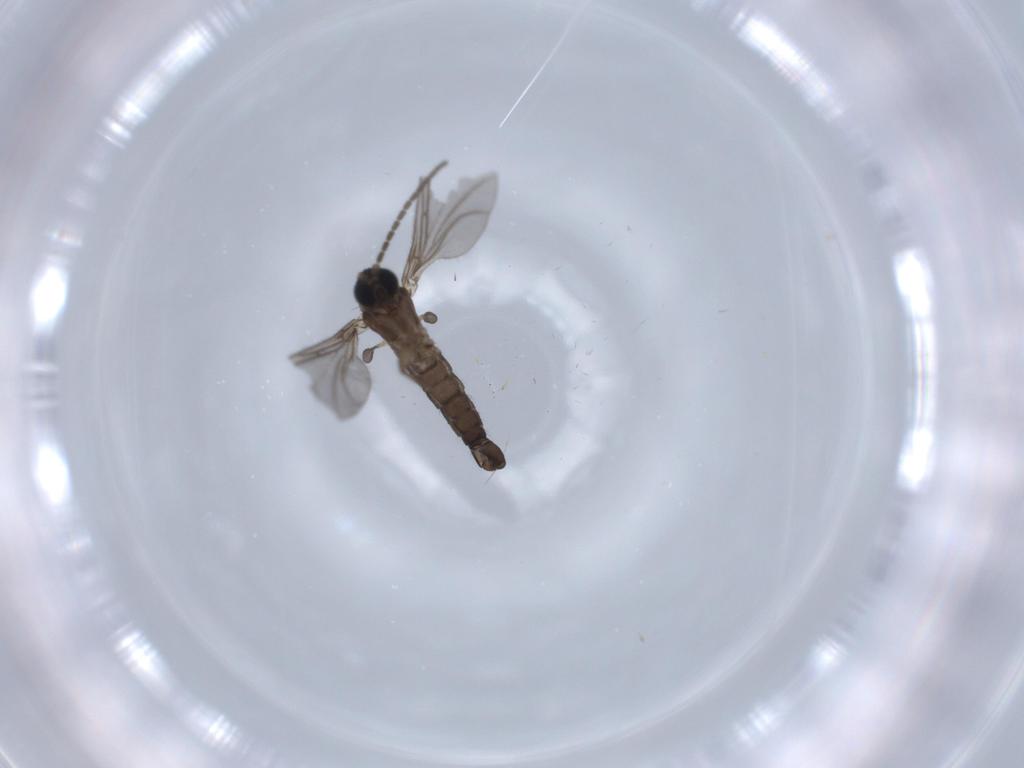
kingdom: Animalia
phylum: Arthropoda
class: Insecta
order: Diptera
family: Sciaridae
